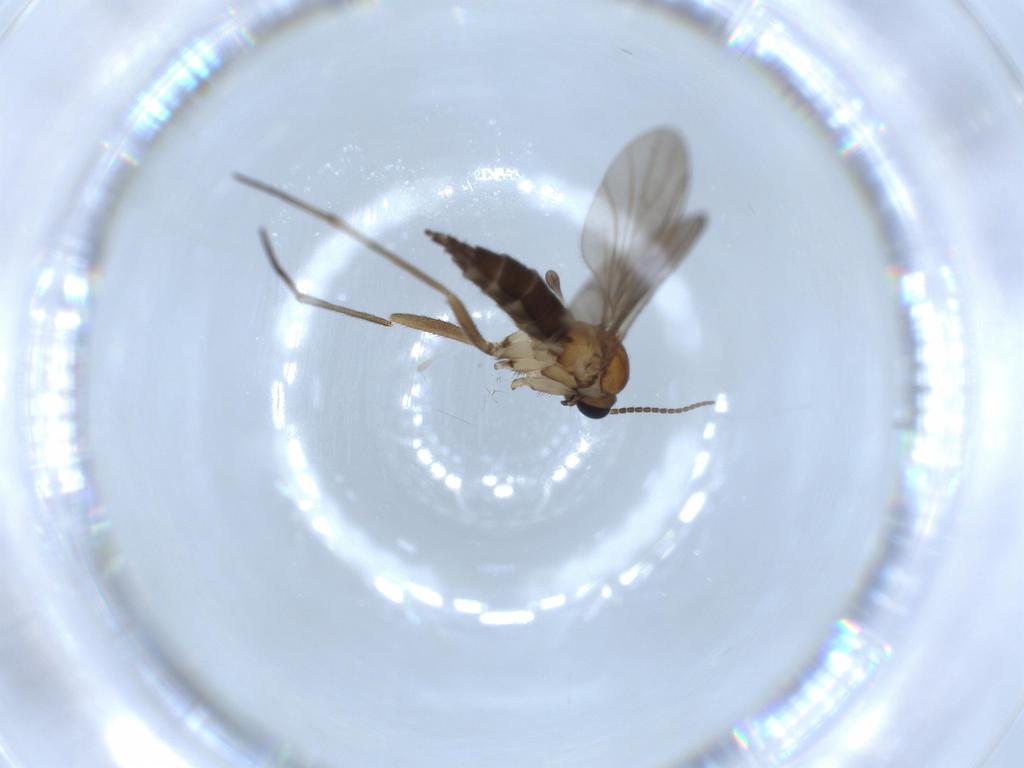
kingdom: Animalia
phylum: Arthropoda
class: Insecta
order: Diptera
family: Sciaridae
